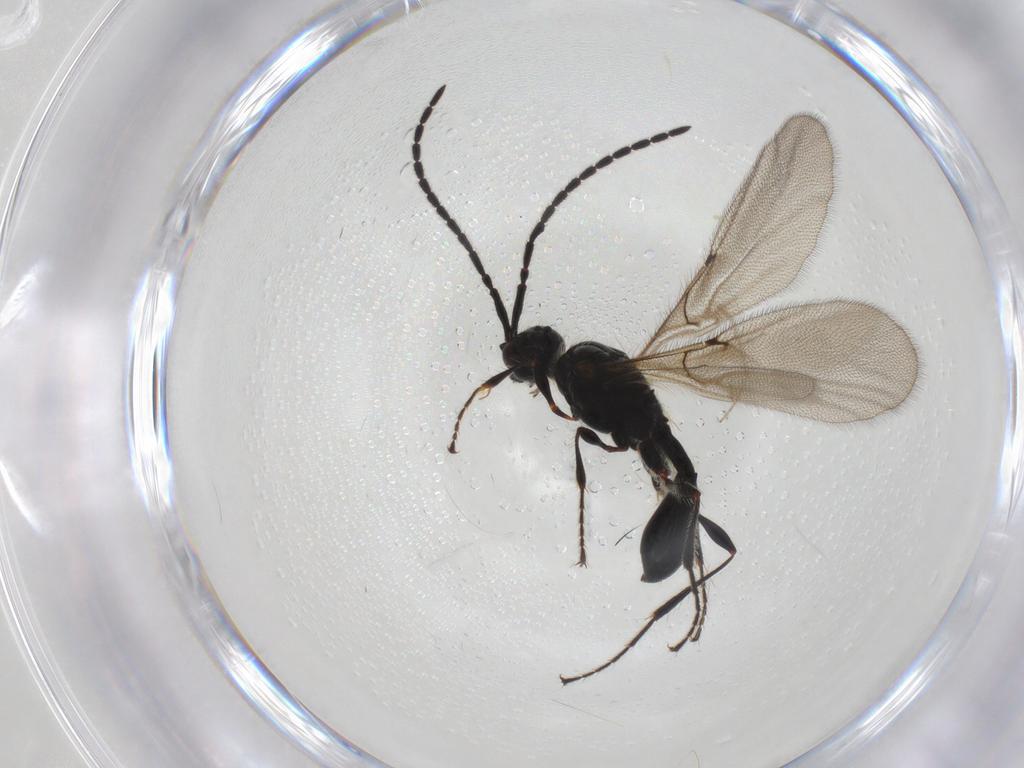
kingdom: Animalia
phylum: Arthropoda
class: Insecta
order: Hymenoptera
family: Diapriidae
